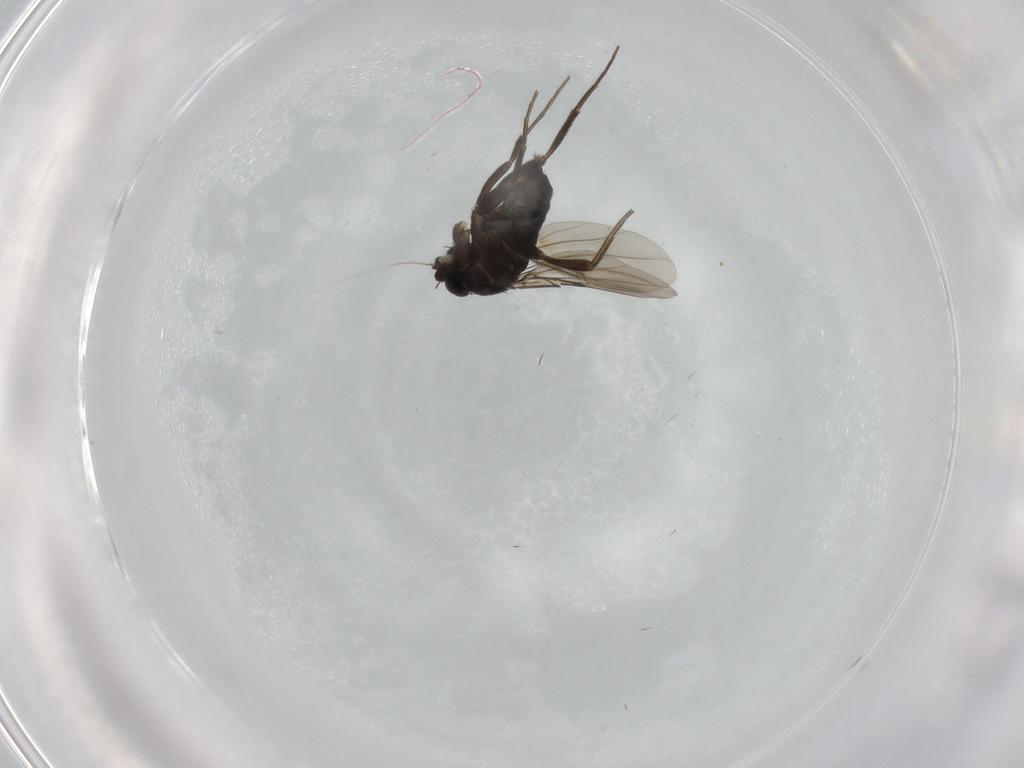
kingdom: Animalia
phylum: Arthropoda
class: Insecta
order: Diptera
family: Phoridae
